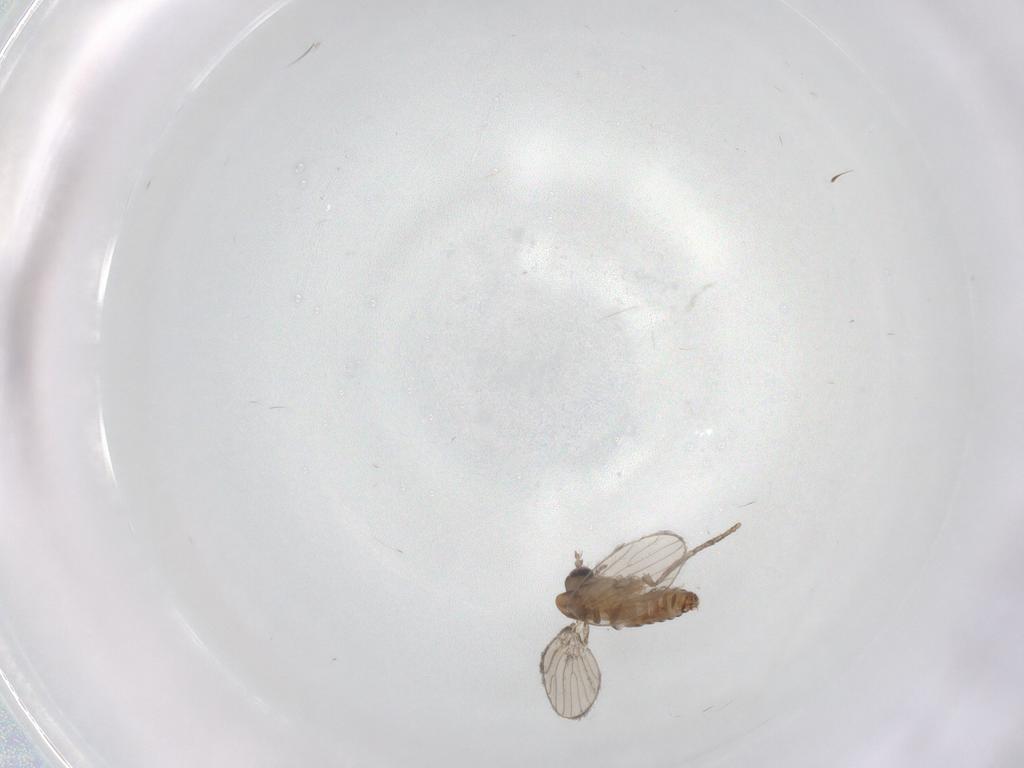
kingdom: Animalia
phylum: Arthropoda
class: Insecta
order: Diptera
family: Psychodidae
